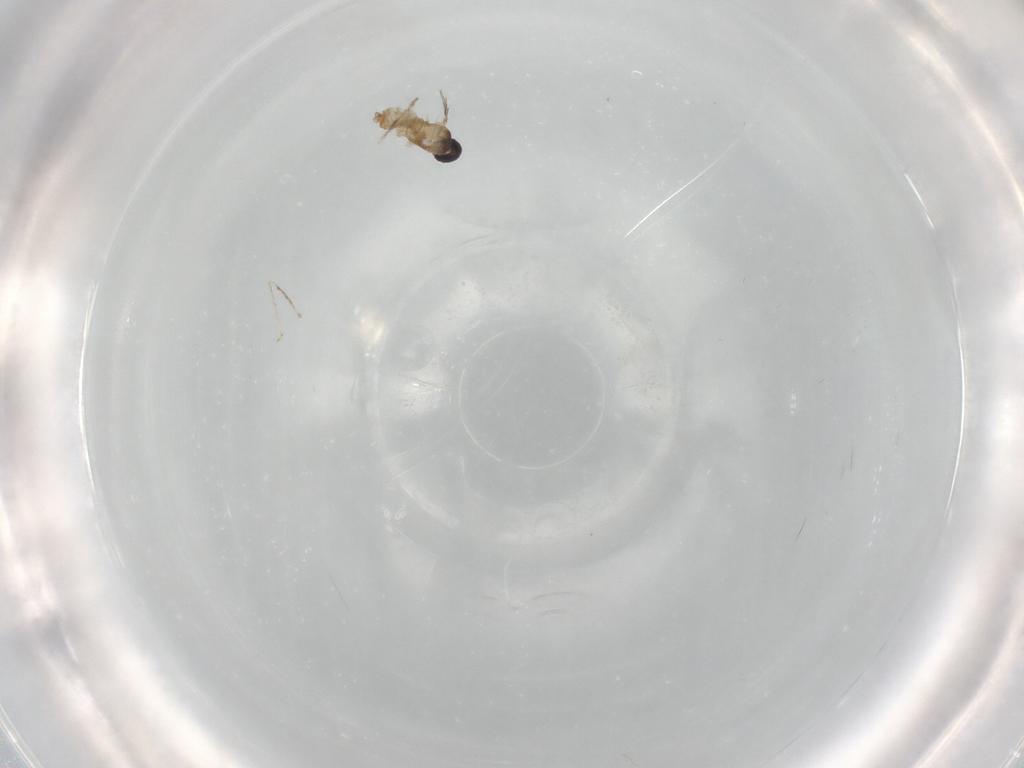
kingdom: Animalia
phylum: Arthropoda
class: Insecta
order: Diptera
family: Cecidomyiidae
